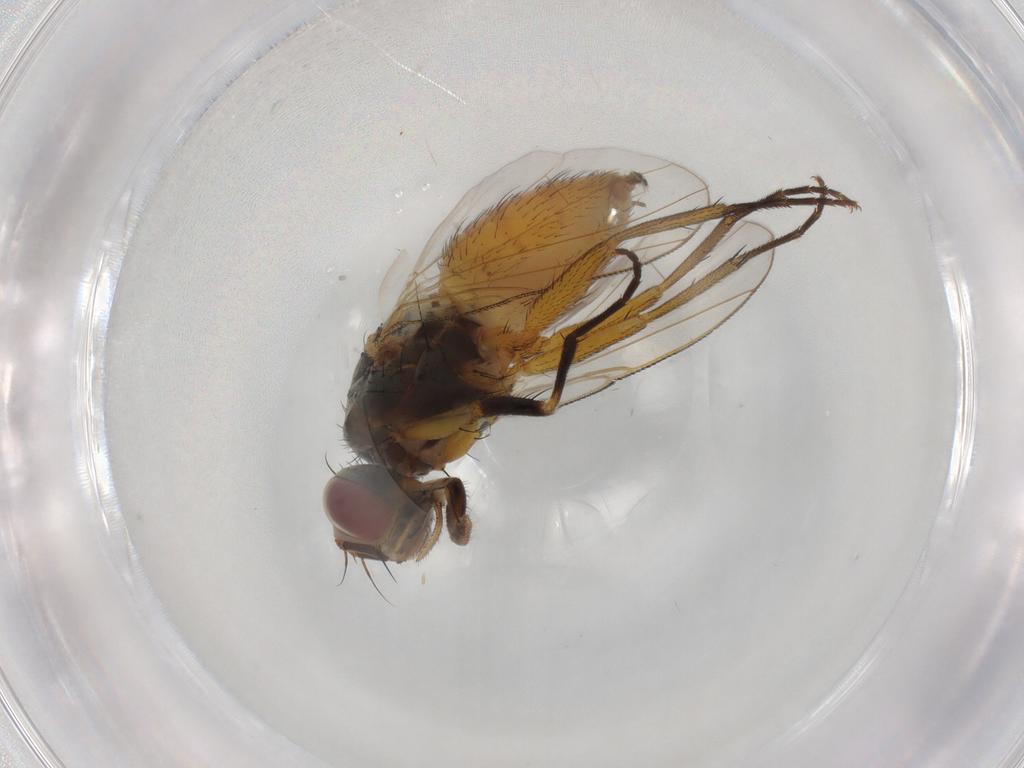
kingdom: Animalia
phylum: Arthropoda
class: Insecta
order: Diptera
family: Muscidae
